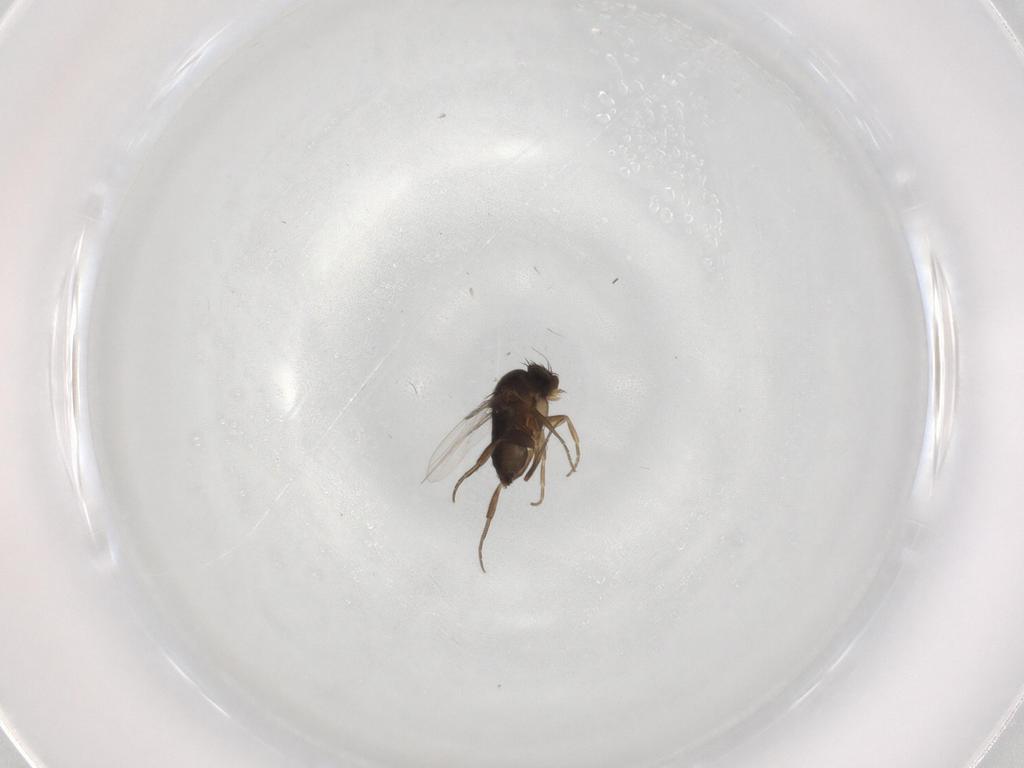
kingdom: Animalia
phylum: Arthropoda
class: Insecta
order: Diptera
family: Phoridae
